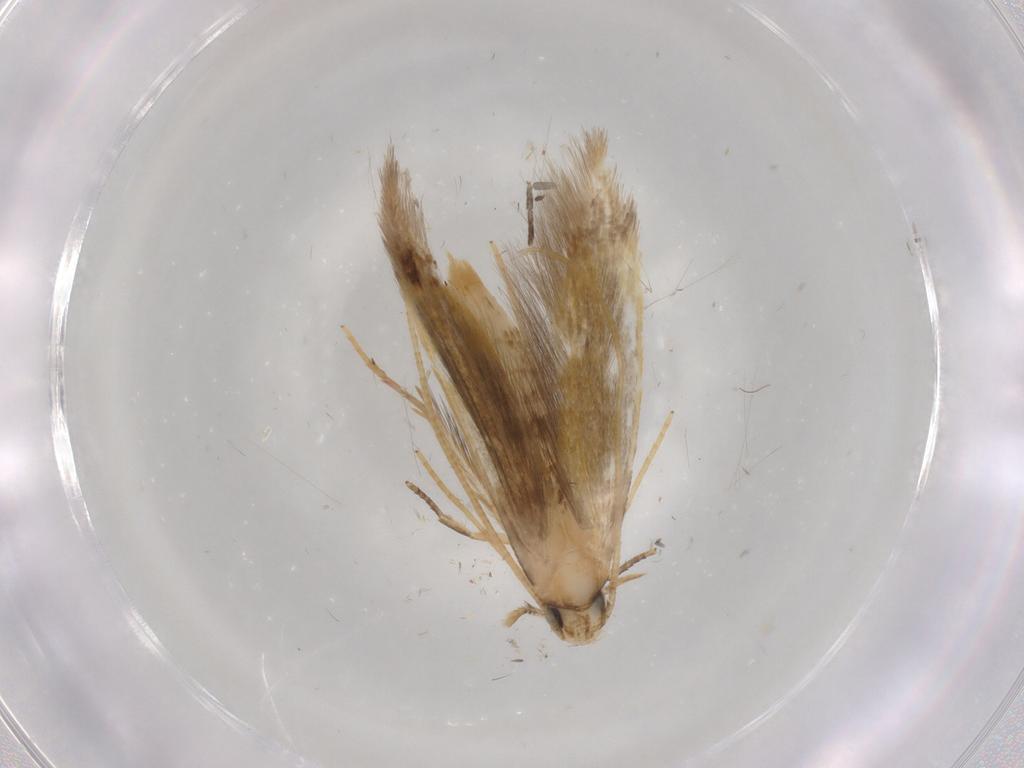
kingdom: Animalia
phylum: Arthropoda
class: Insecta
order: Lepidoptera
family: Tineidae
